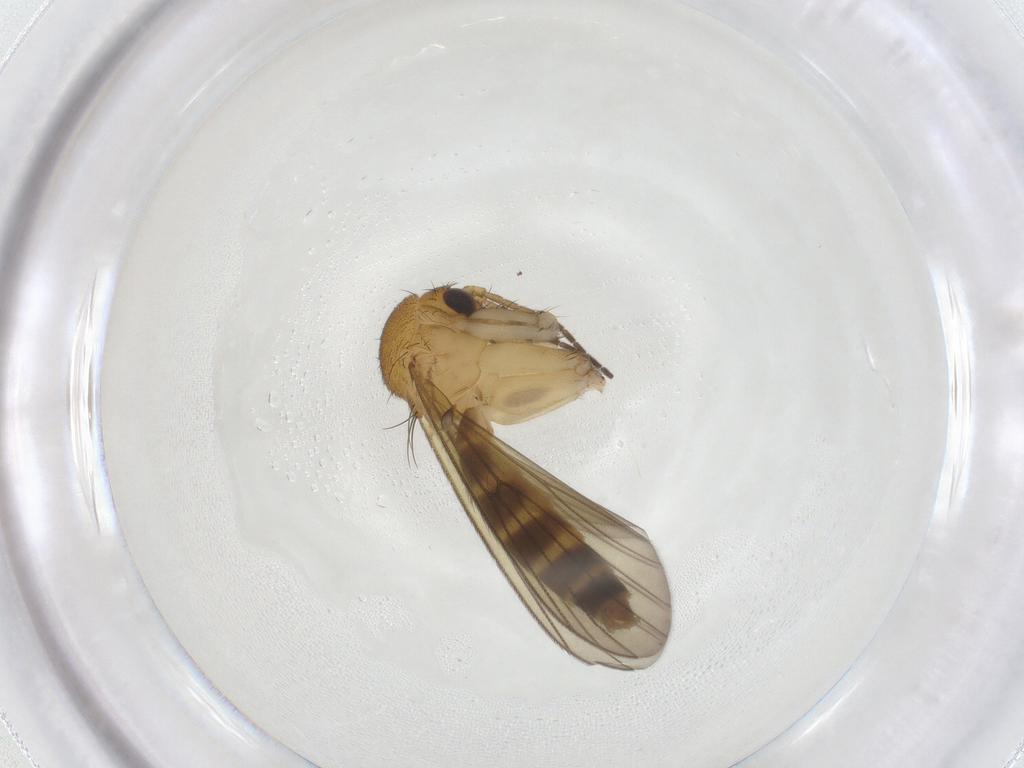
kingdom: Animalia
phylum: Arthropoda
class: Insecta
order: Diptera
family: Mycetophilidae
